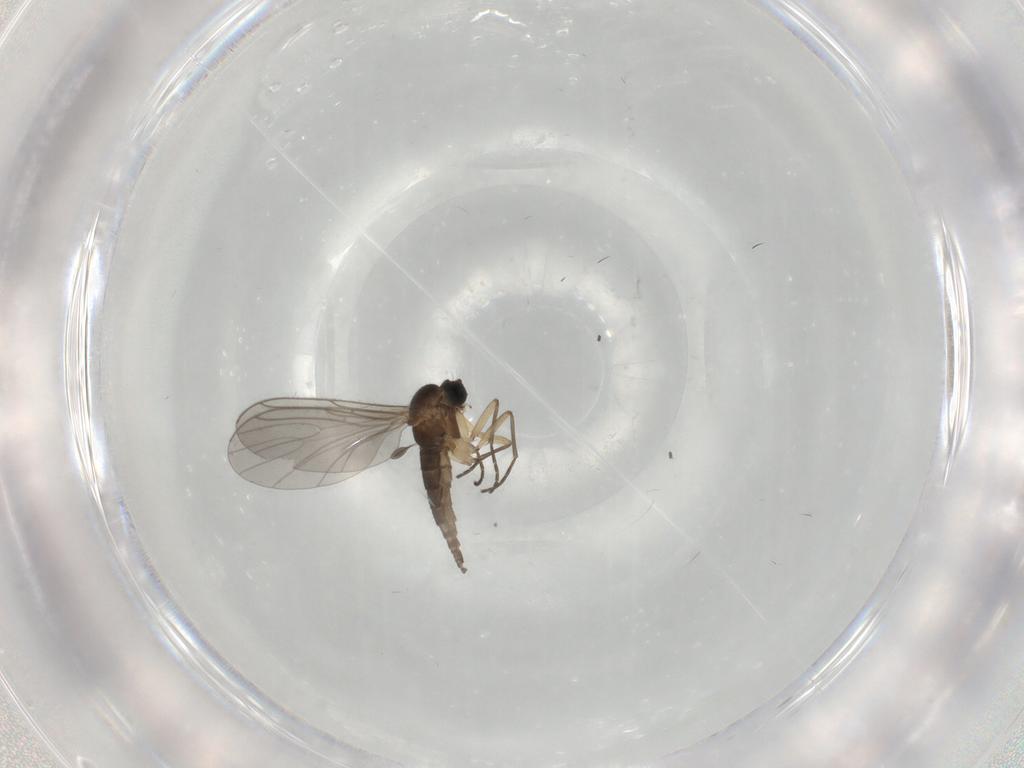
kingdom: Animalia
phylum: Arthropoda
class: Insecta
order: Diptera
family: Sciaridae
